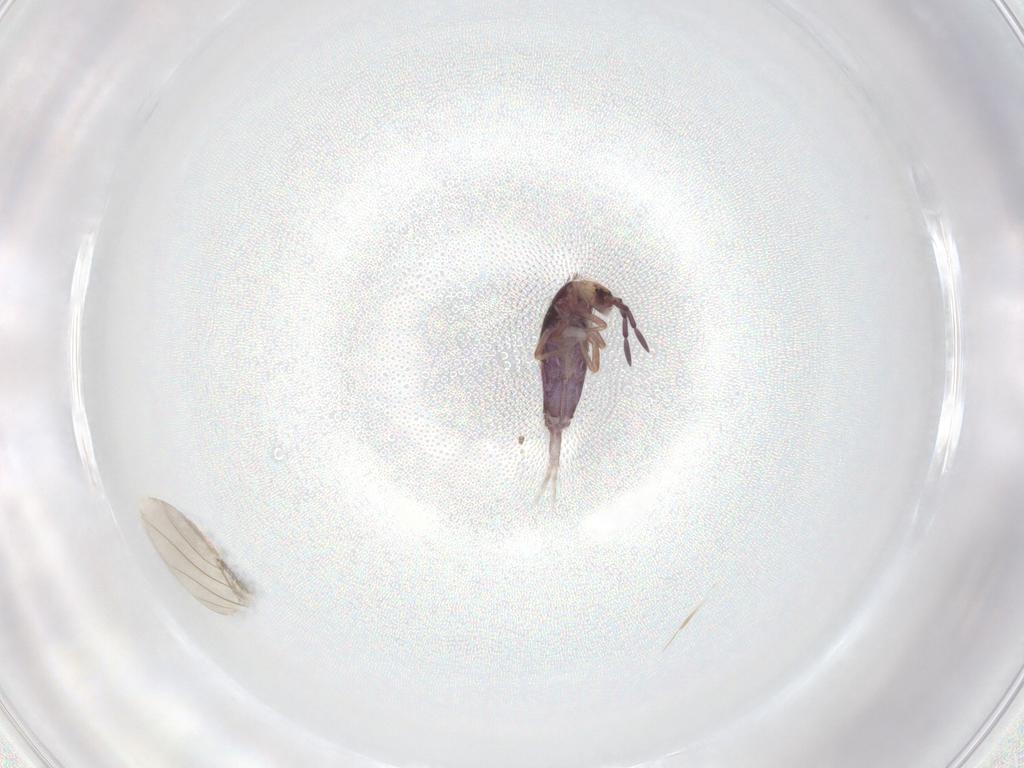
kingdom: Animalia
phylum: Arthropoda
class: Collembola
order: Entomobryomorpha
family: Entomobryidae
